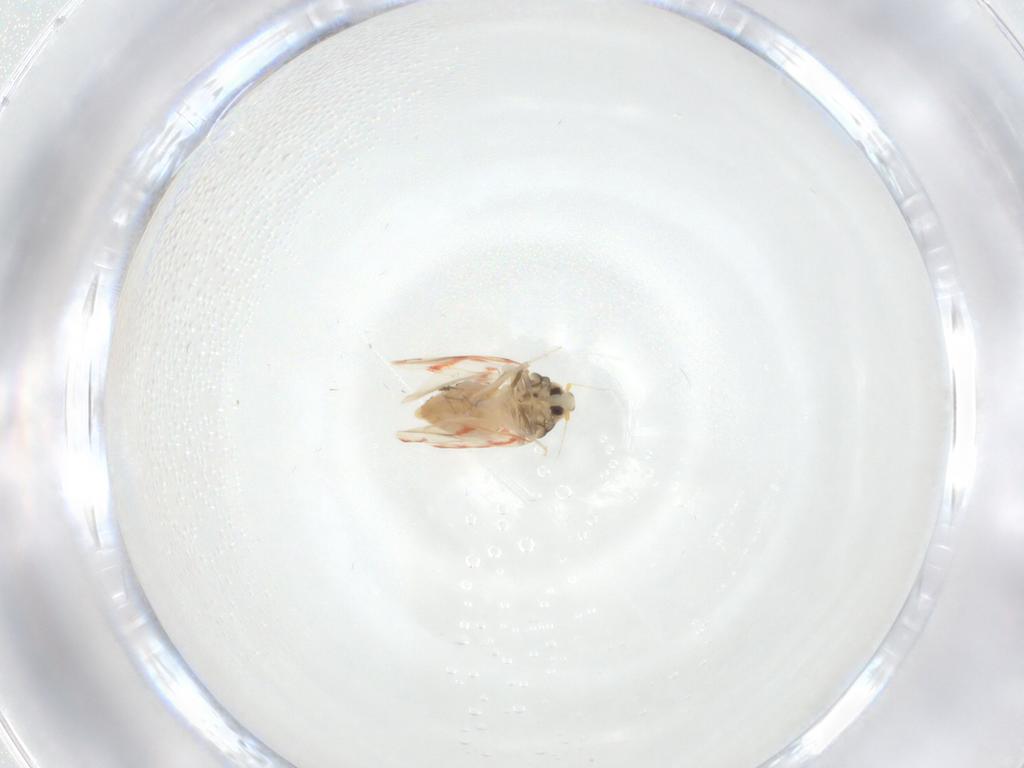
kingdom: Animalia
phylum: Arthropoda
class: Insecta
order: Hemiptera
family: Aleyrodidae
